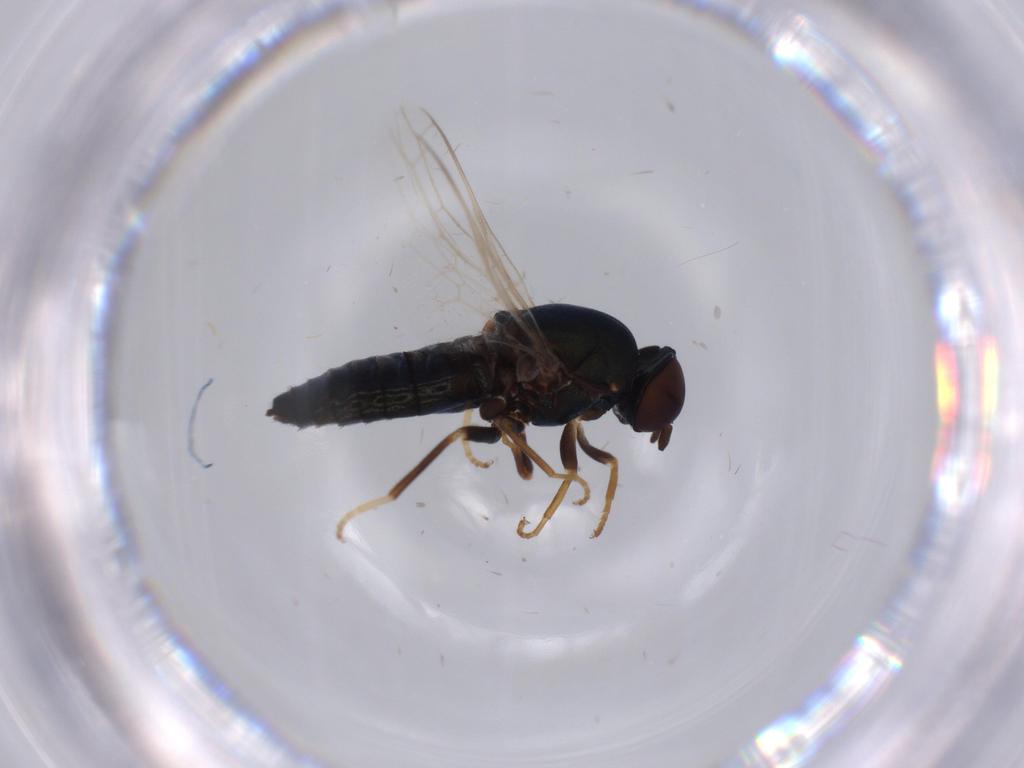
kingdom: Animalia
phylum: Arthropoda
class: Insecta
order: Diptera
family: Milichiidae
